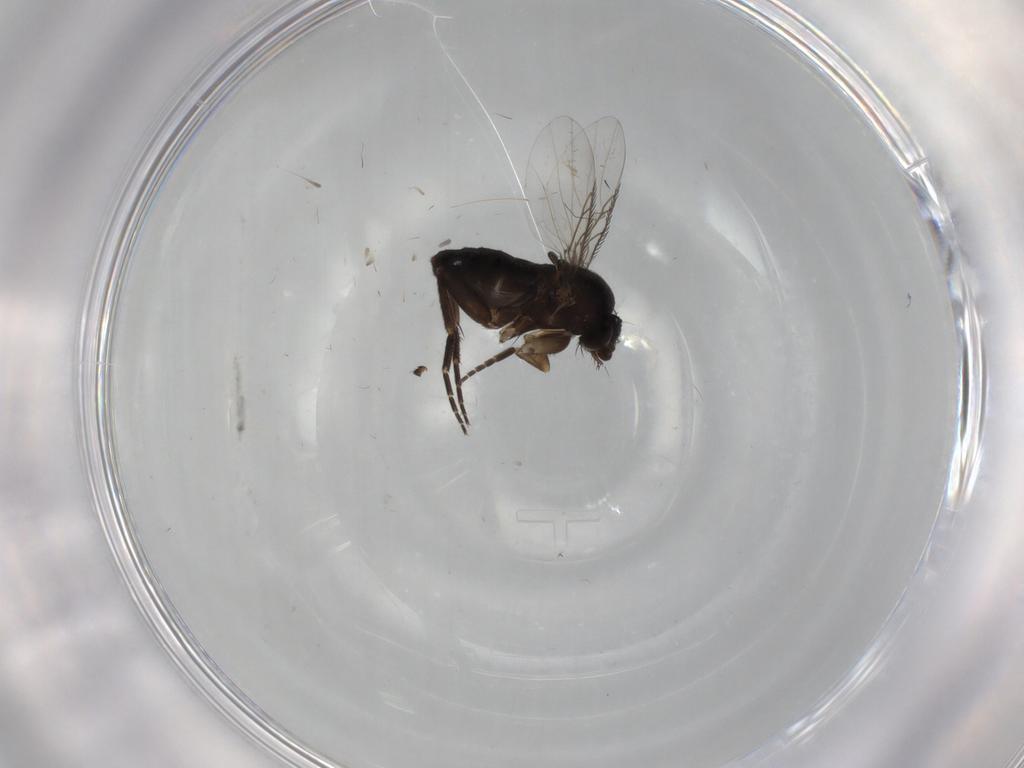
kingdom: Animalia
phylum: Arthropoda
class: Insecta
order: Diptera
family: Phoridae
